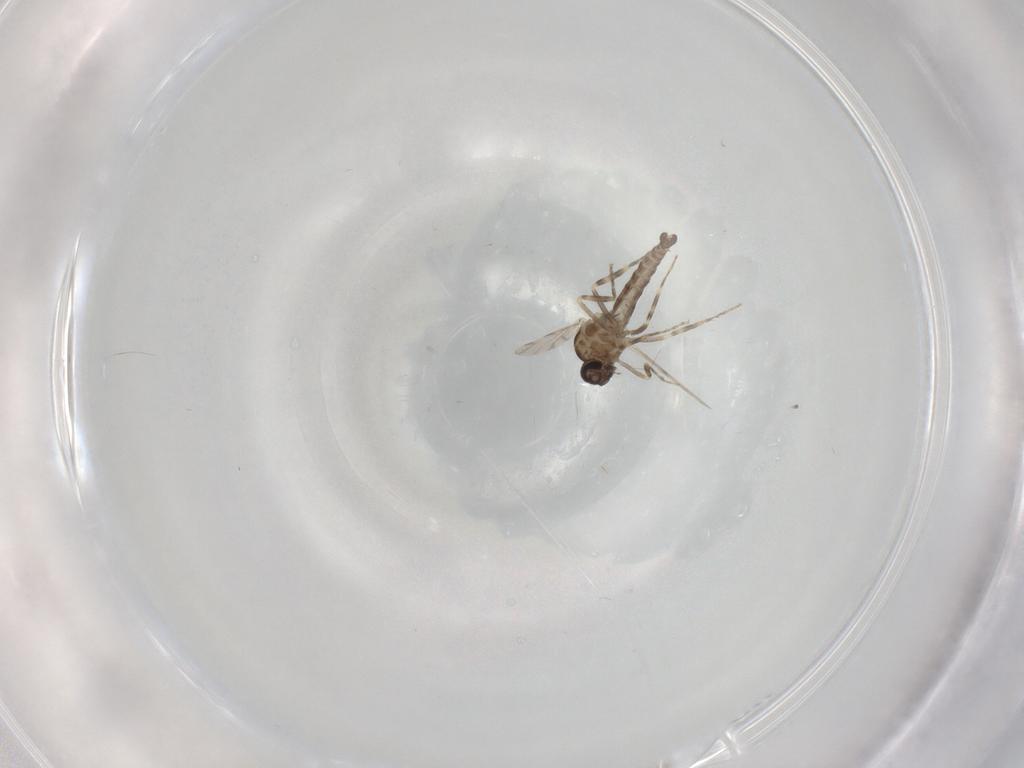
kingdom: Animalia
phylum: Arthropoda
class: Insecta
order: Diptera
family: Ceratopogonidae
